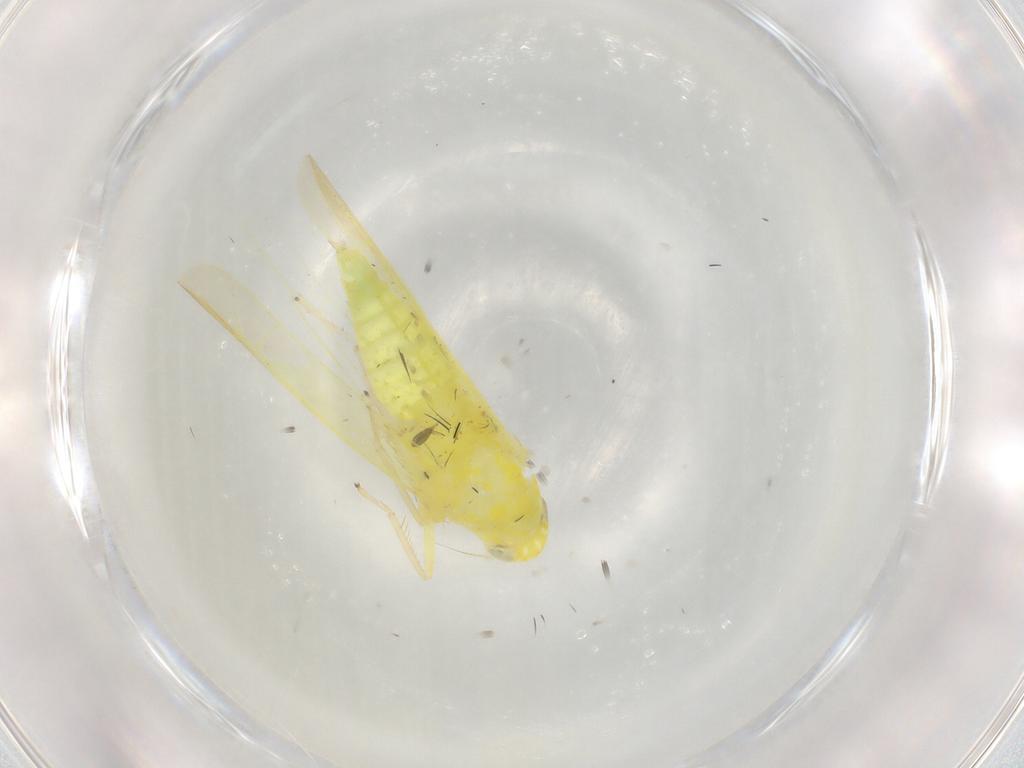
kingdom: Animalia
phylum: Arthropoda
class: Insecta
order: Hemiptera
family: Cicadellidae
